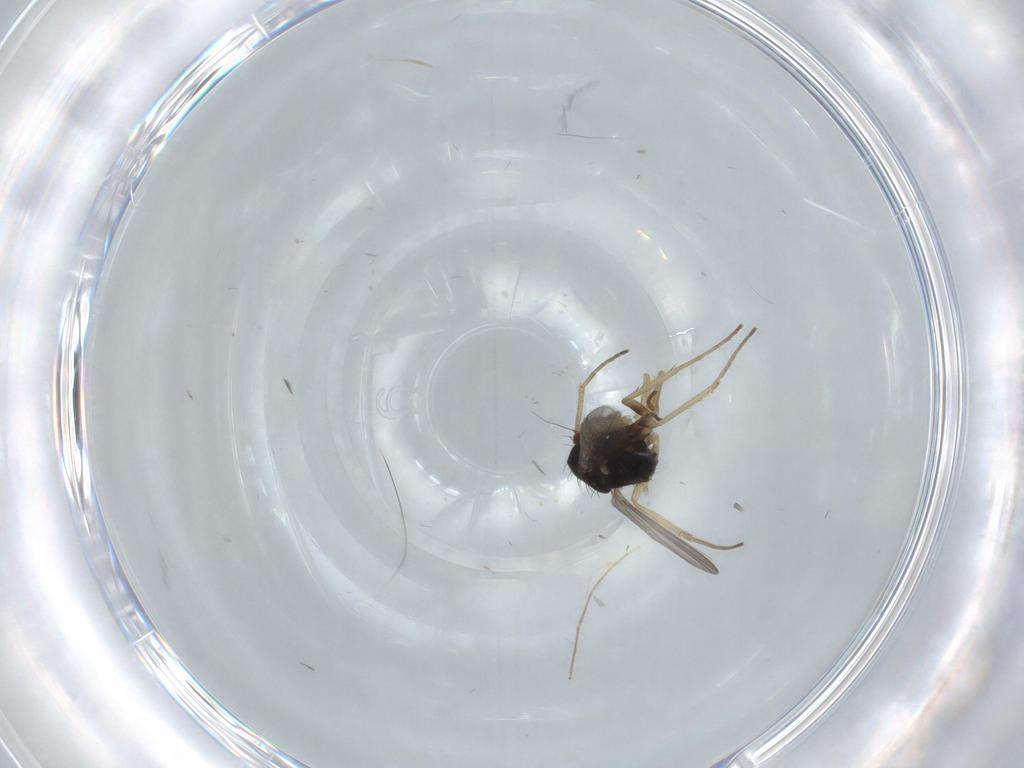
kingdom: Animalia
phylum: Arthropoda
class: Insecta
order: Diptera
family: Dolichopodidae
